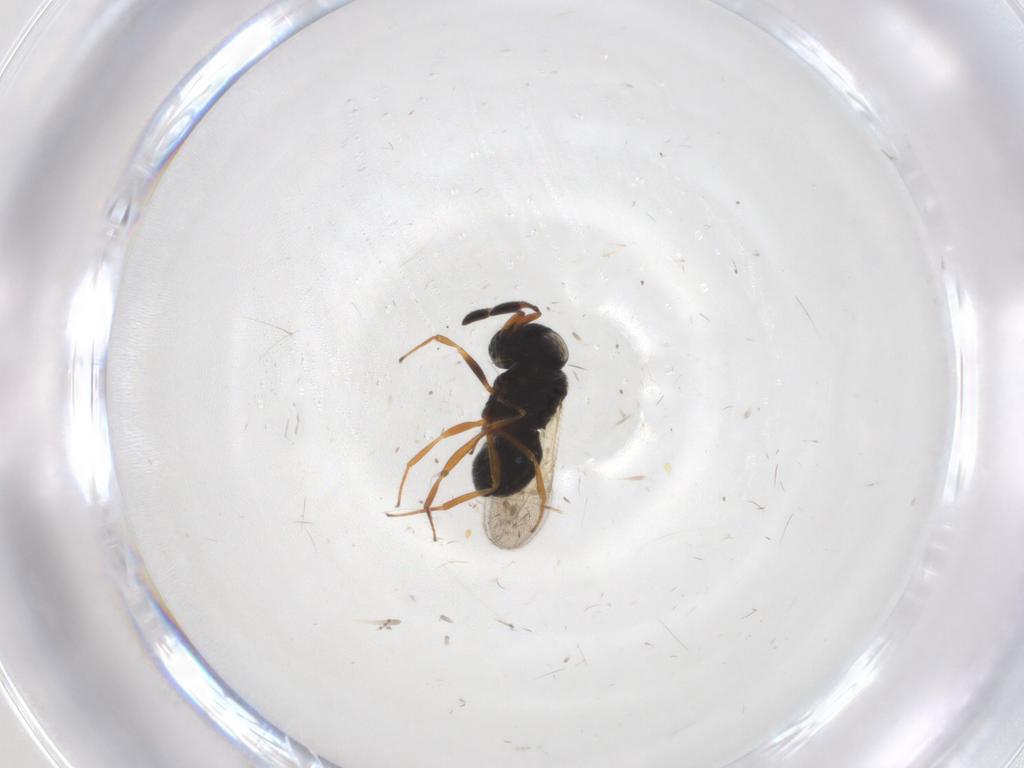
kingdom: Animalia
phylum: Arthropoda
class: Insecta
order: Hymenoptera
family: Scelionidae
